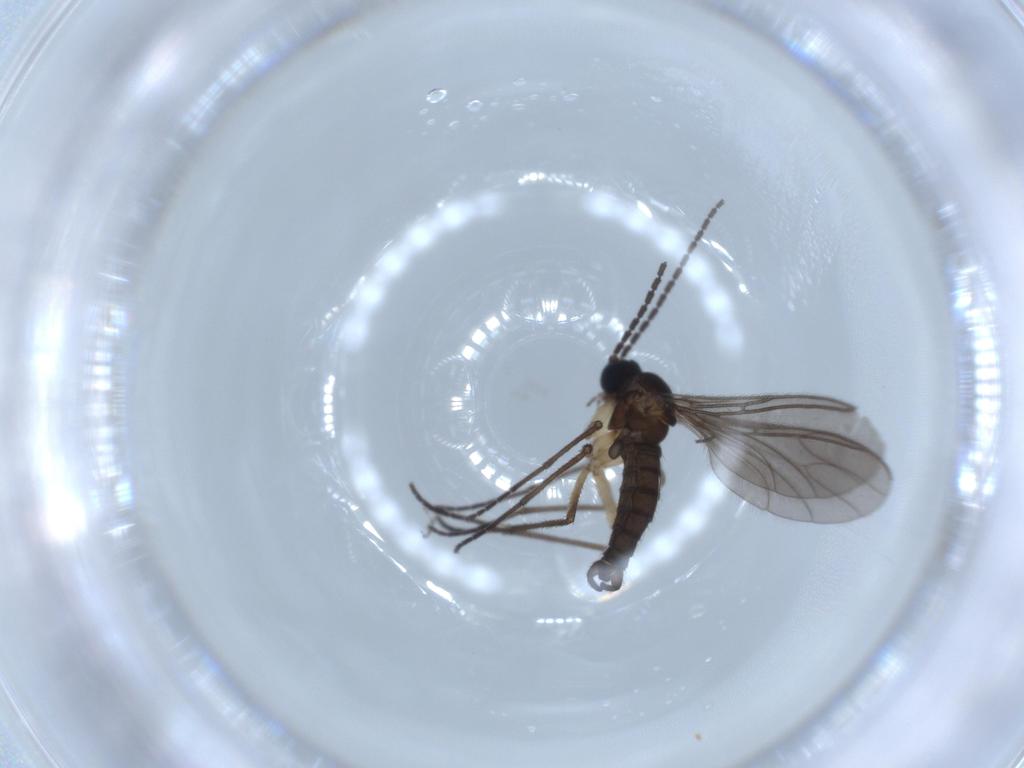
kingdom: Animalia
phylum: Arthropoda
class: Insecta
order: Diptera
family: Sciaridae
